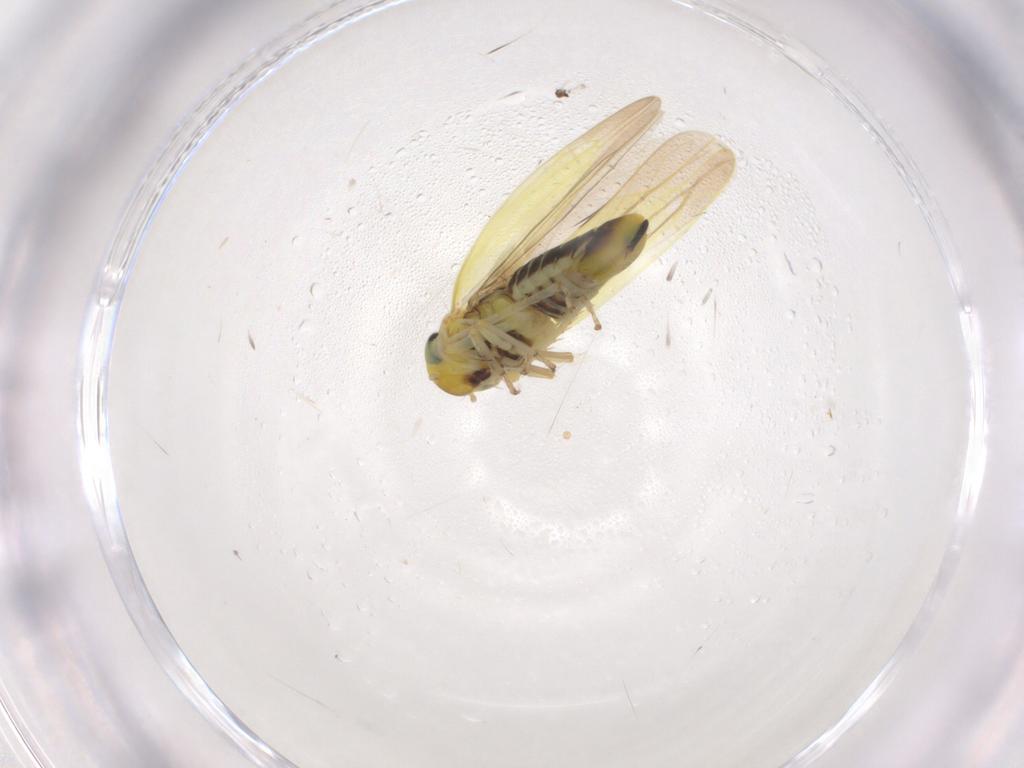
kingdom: Animalia
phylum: Arthropoda
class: Insecta
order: Hemiptera
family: Cicadellidae
